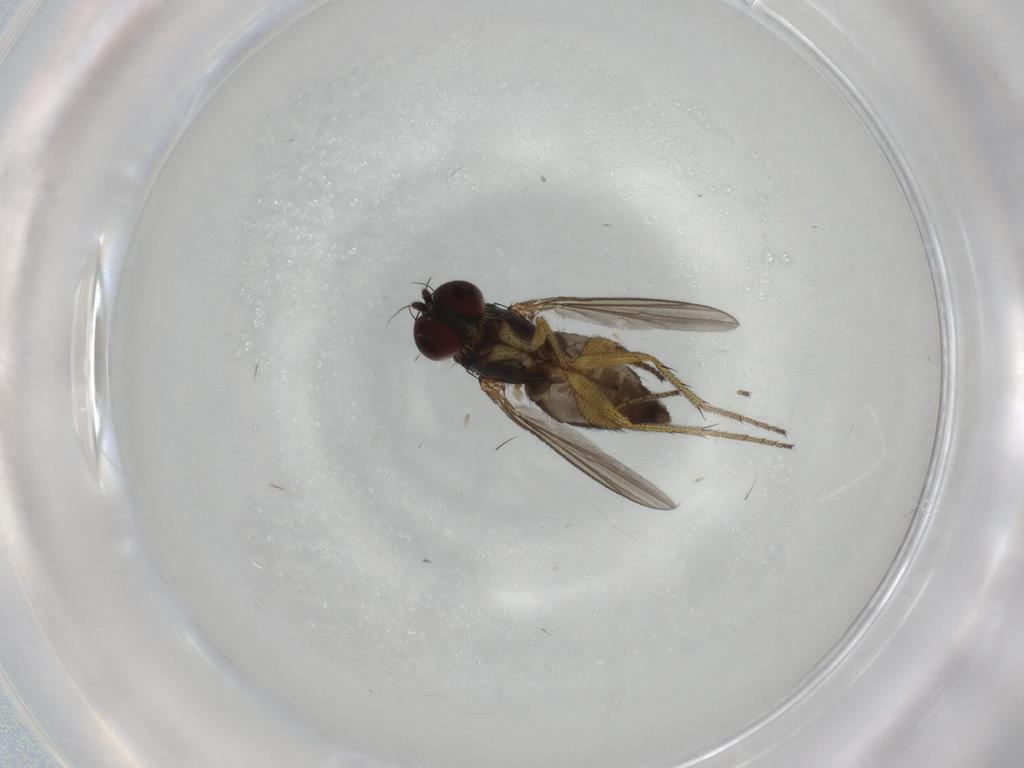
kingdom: Animalia
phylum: Arthropoda
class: Insecta
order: Diptera
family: Dolichopodidae
